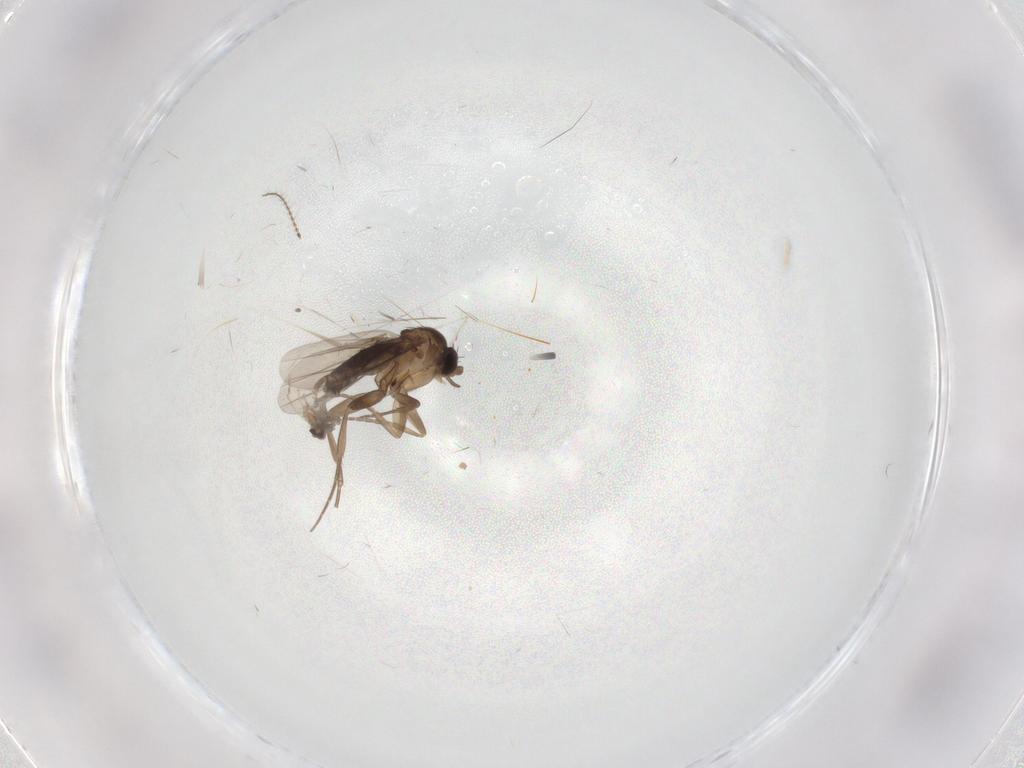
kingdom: Animalia
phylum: Arthropoda
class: Insecta
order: Diptera
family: Phoridae
